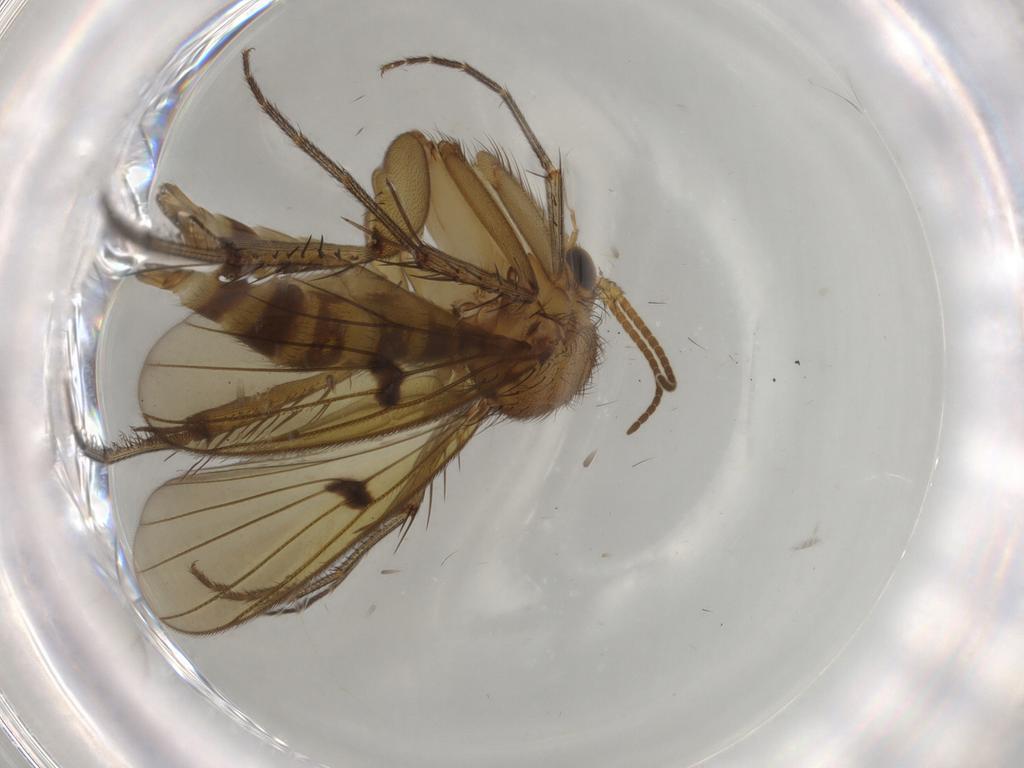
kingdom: Animalia
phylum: Arthropoda
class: Insecta
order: Diptera
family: Mycetophilidae
